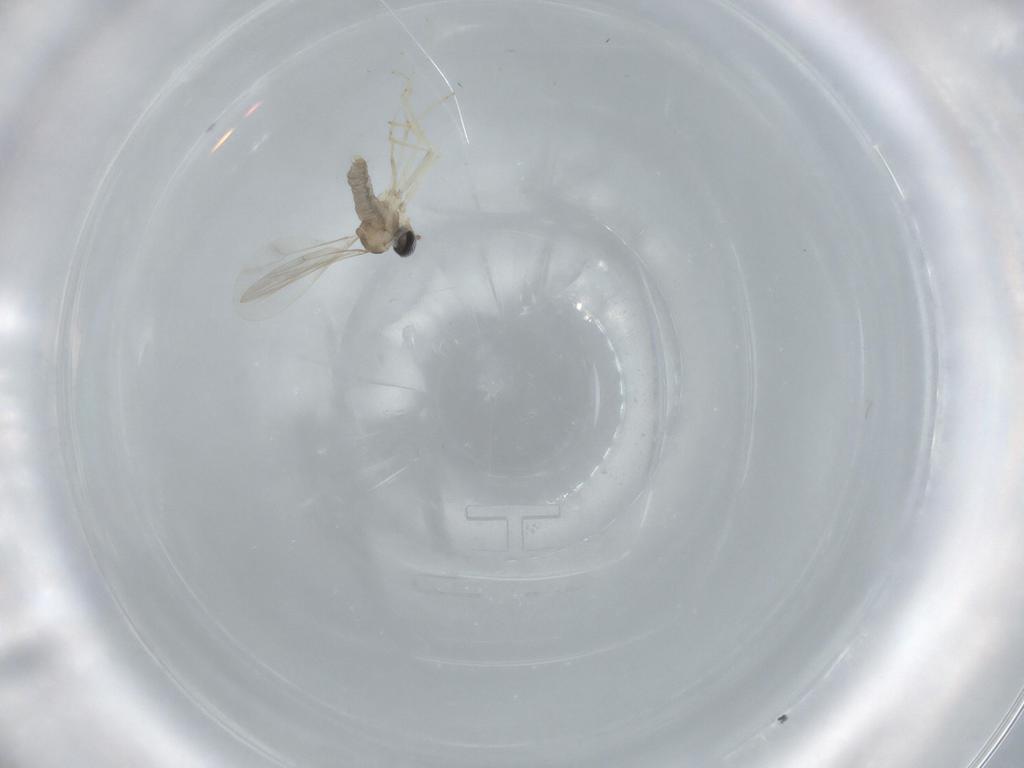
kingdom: Animalia
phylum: Arthropoda
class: Insecta
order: Diptera
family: Cecidomyiidae
